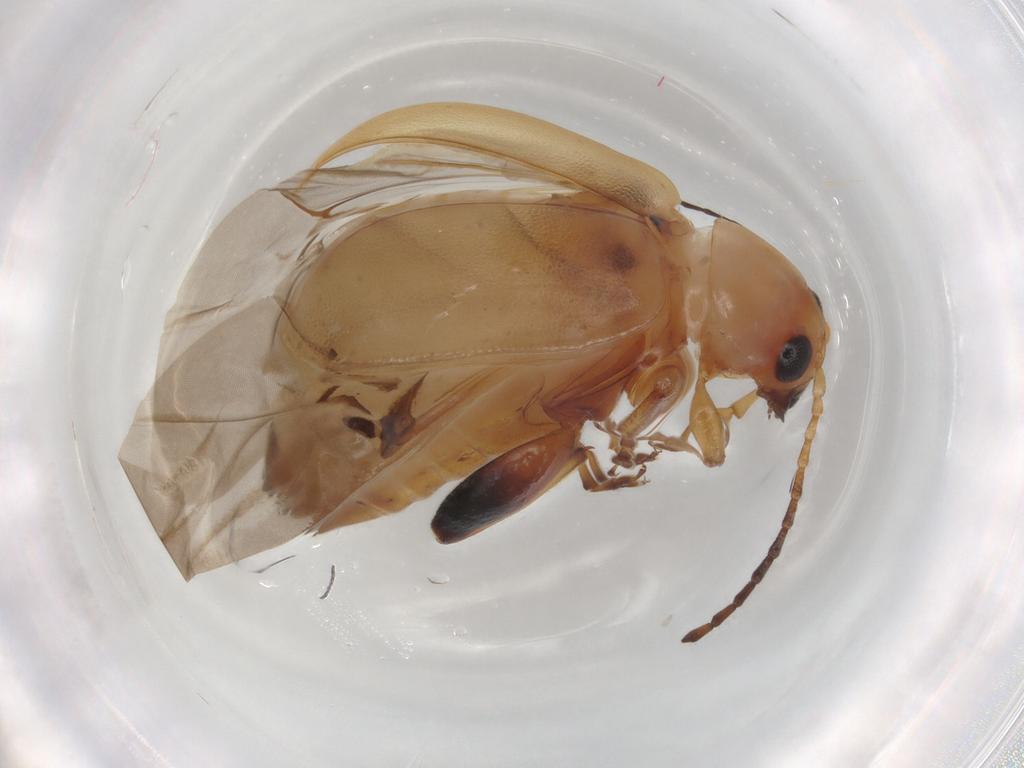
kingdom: Animalia
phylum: Arthropoda
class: Insecta
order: Coleoptera
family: Chrysomelidae
